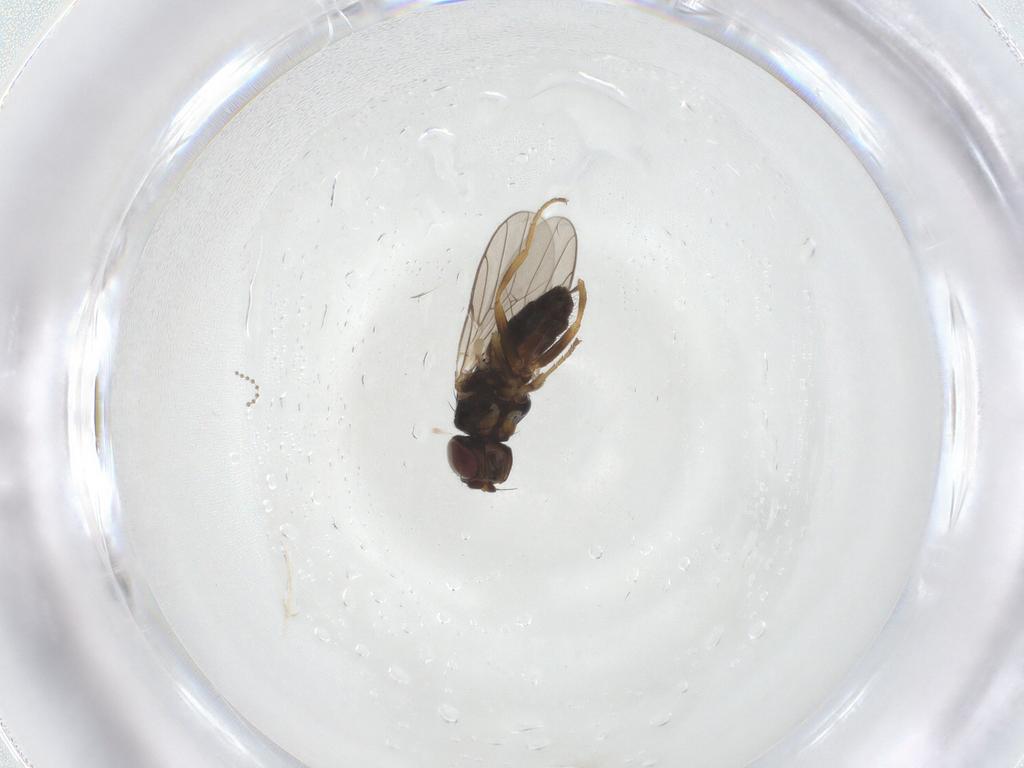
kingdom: Animalia
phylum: Arthropoda
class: Insecta
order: Diptera
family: Chloropidae
